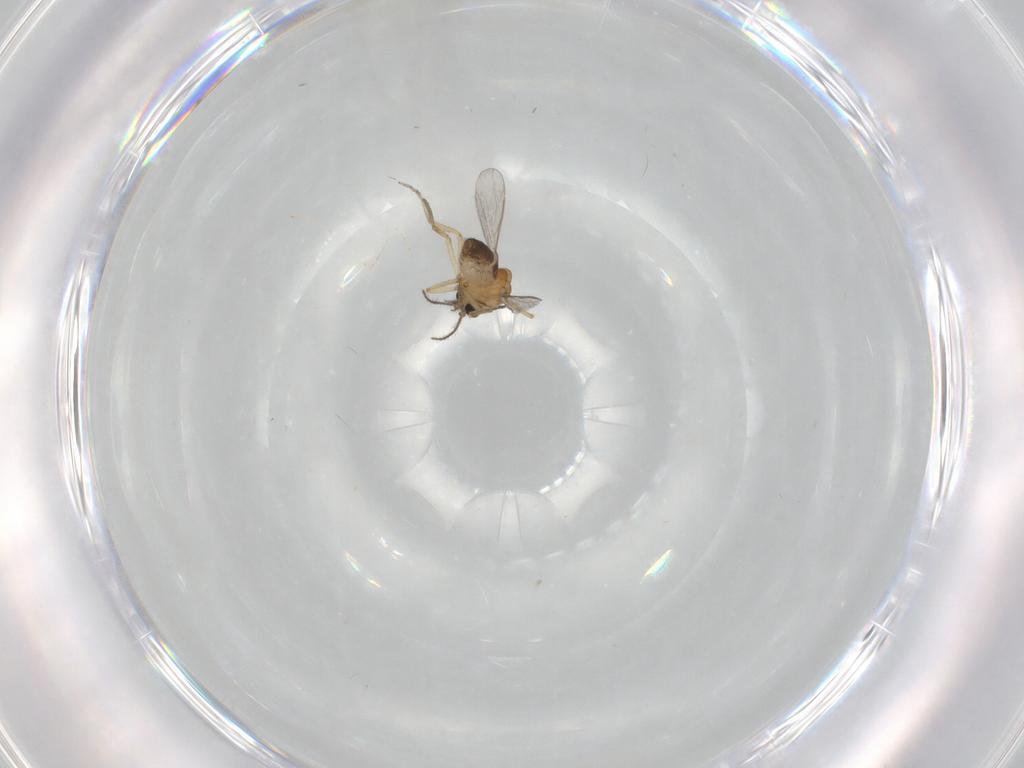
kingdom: Animalia
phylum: Arthropoda
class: Insecta
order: Diptera
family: Ceratopogonidae
